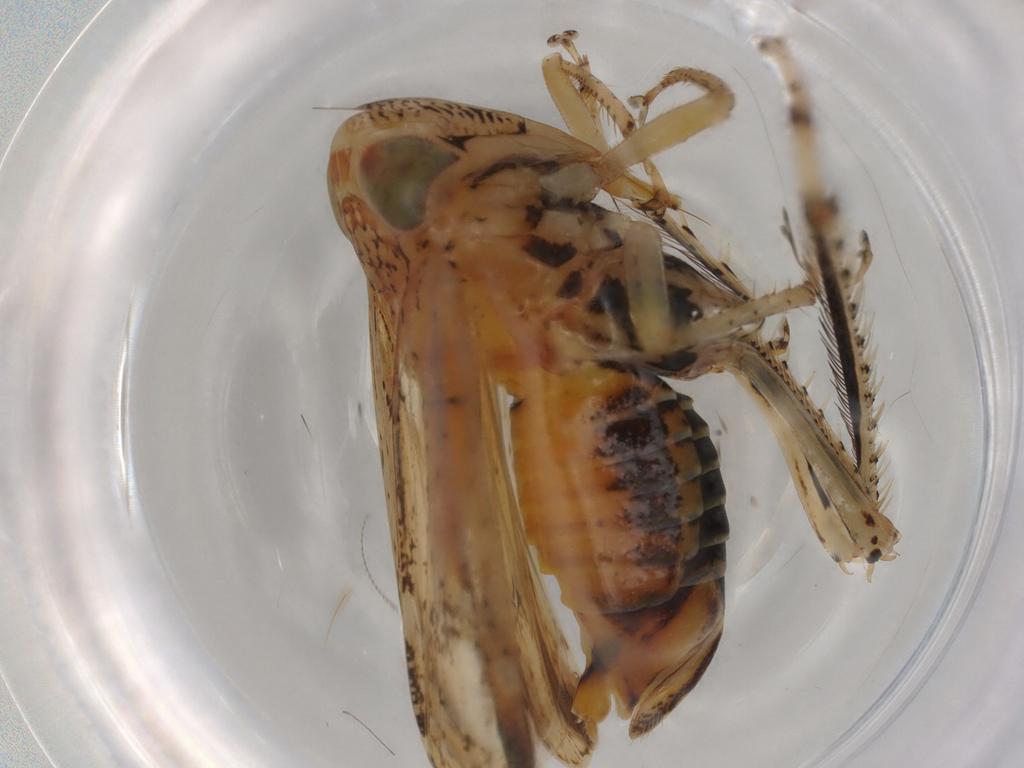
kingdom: Animalia
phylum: Arthropoda
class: Insecta
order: Hemiptera
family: Cicadellidae
